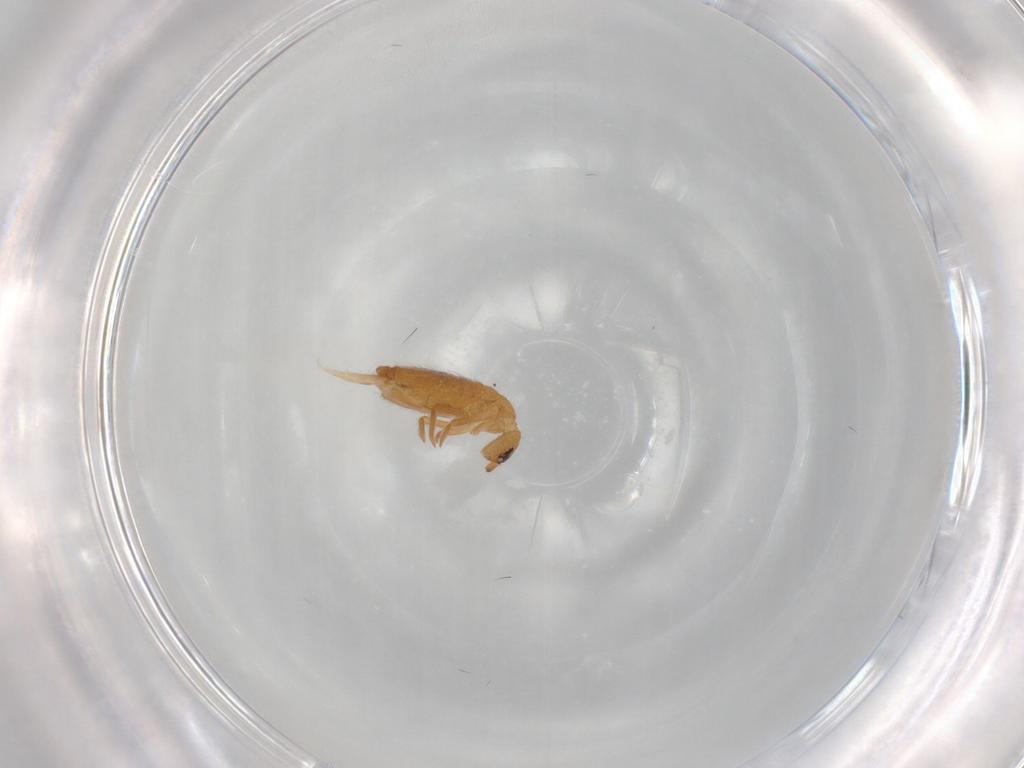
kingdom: Animalia
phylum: Arthropoda
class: Collembola
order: Entomobryomorpha
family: Entomobryidae
